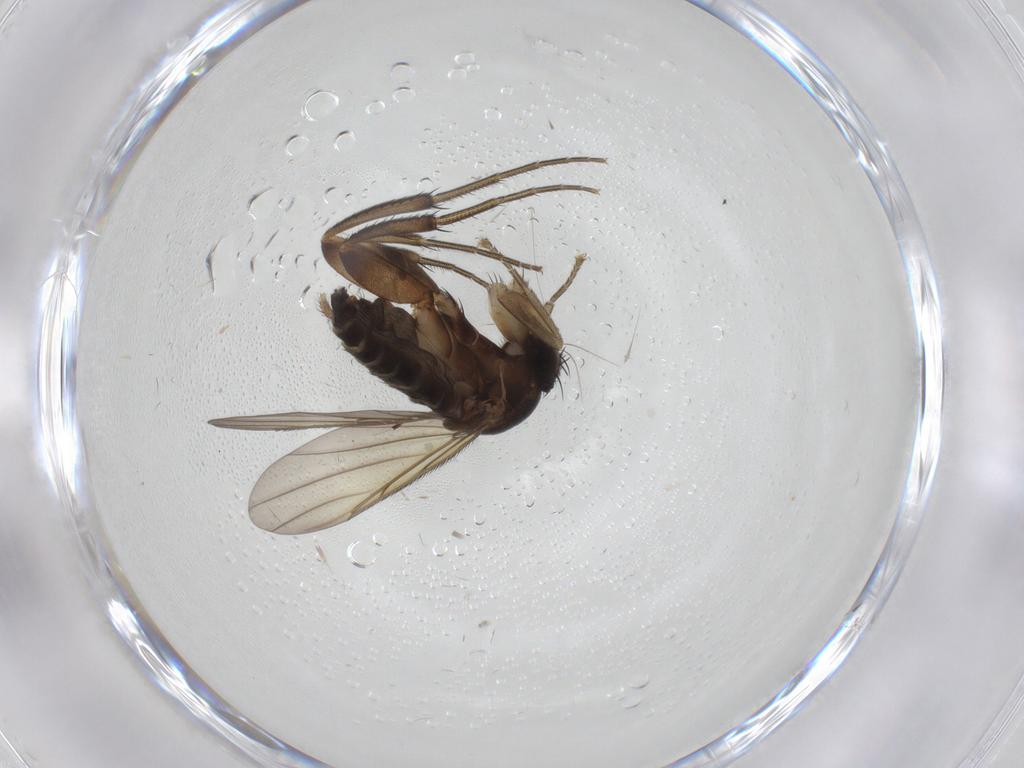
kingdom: Animalia
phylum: Arthropoda
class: Insecta
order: Diptera
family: Phoridae
